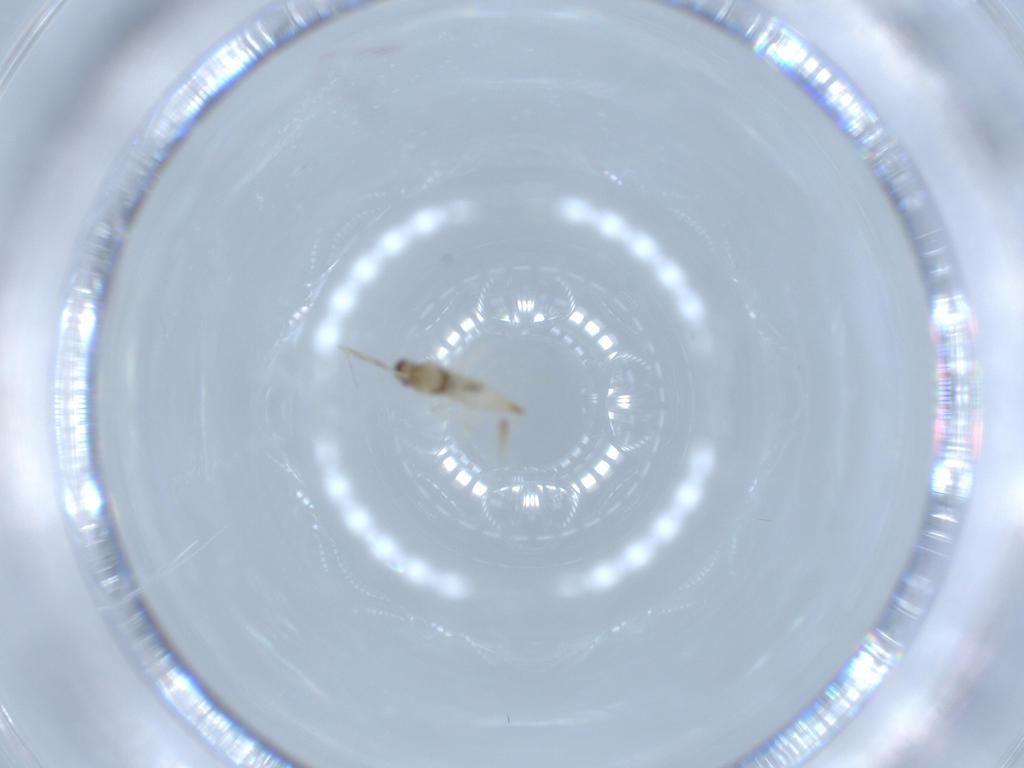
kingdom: Animalia
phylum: Arthropoda
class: Insecta
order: Diptera
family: Cecidomyiidae
